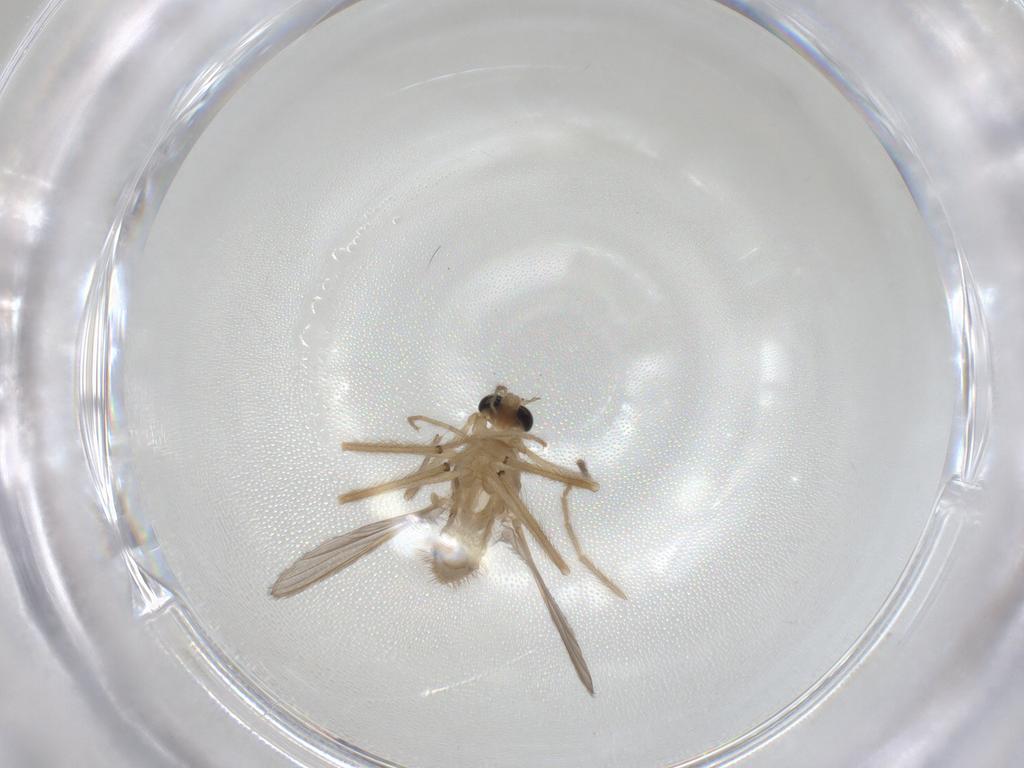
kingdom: Animalia
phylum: Arthropoda
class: Insecta
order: Diptera
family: Chironomidae
